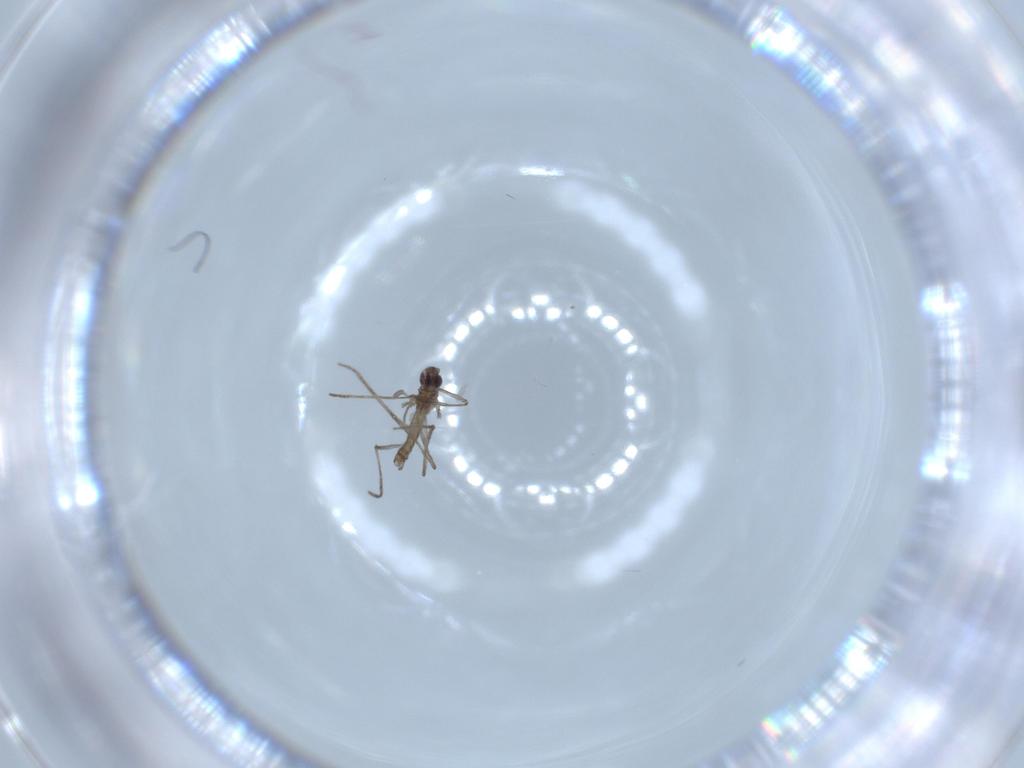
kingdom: Animalia
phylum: Arthropoda
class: Insecta
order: Diptera
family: Cecidomyiidae
